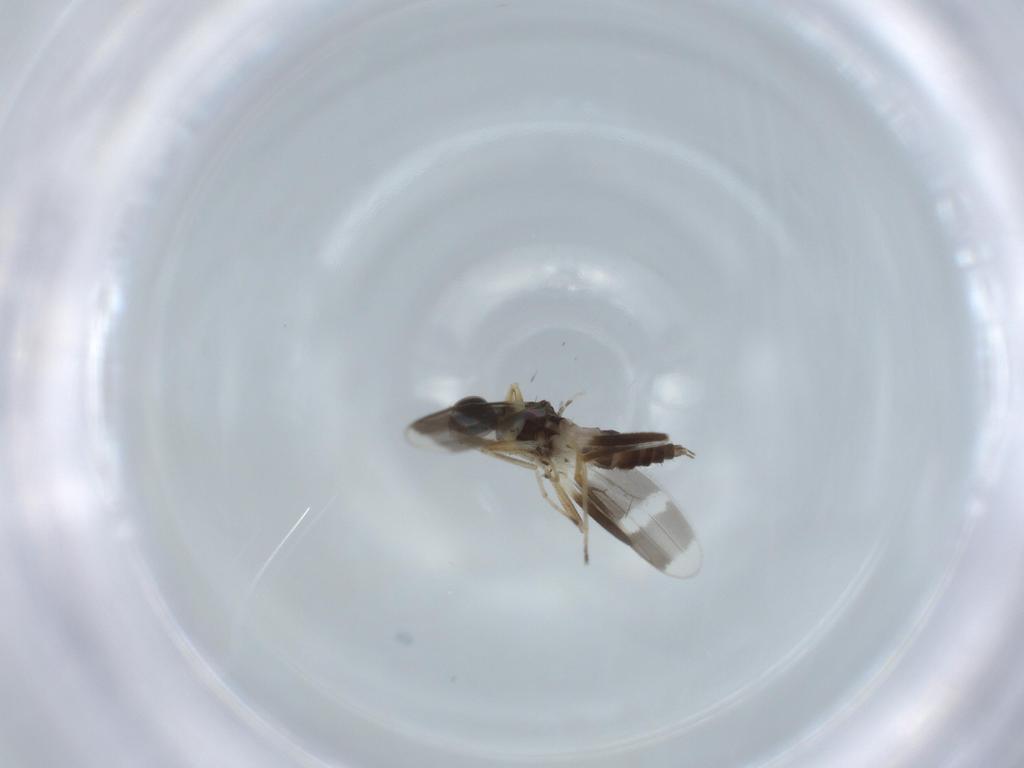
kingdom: Animalia
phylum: Arthropoda
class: Insecta
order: Diptera
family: Hybotidae
